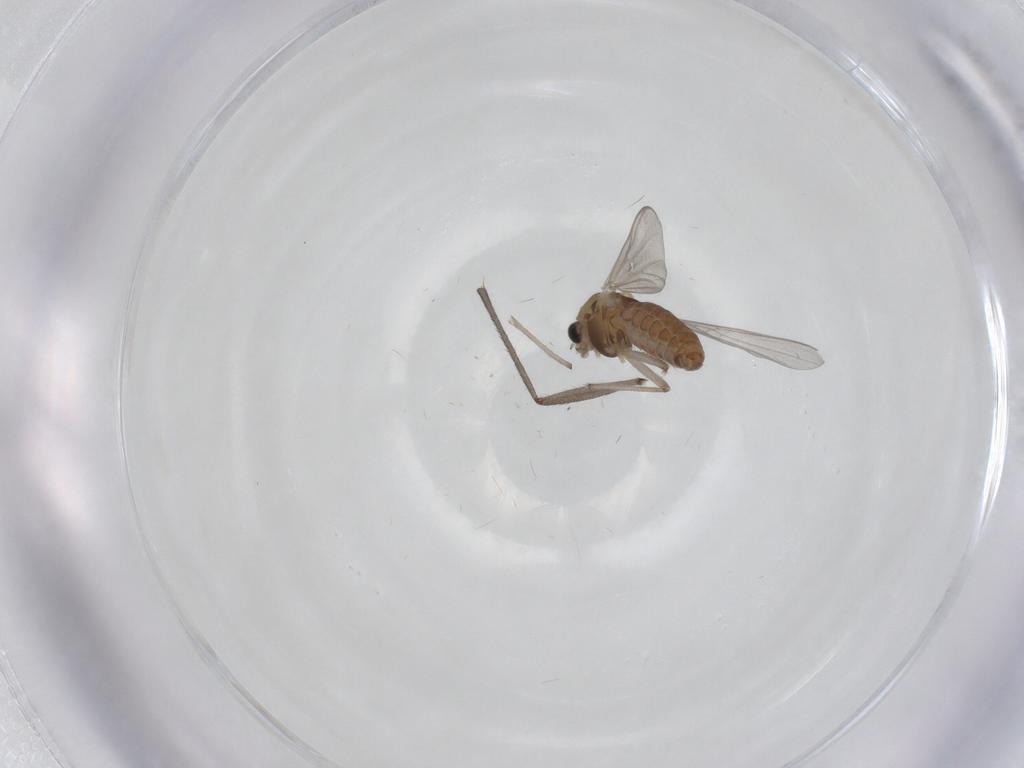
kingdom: Animalia
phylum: Arthropoda
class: Insecta
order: Diptera
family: Chironomidae
